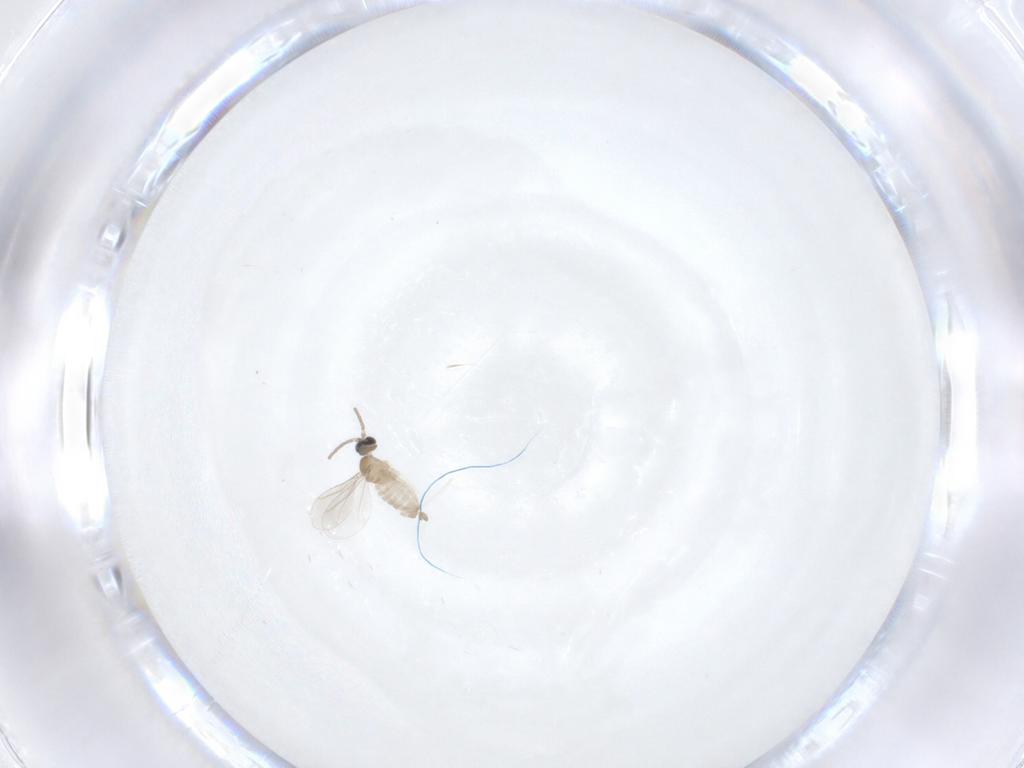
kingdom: Animalia
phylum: Arthropoda
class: Insecta
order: Diptera
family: Cecidomyiidae
